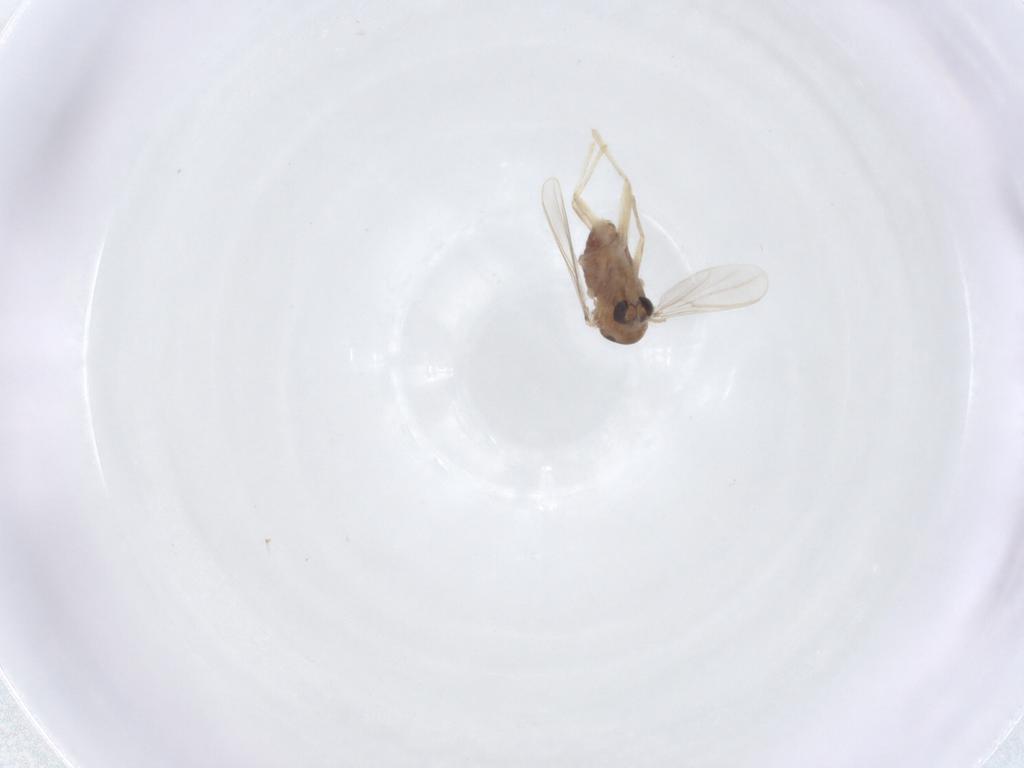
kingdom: Animalia
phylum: Arthropoda
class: Insecta
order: Diptera
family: Chironomidae
